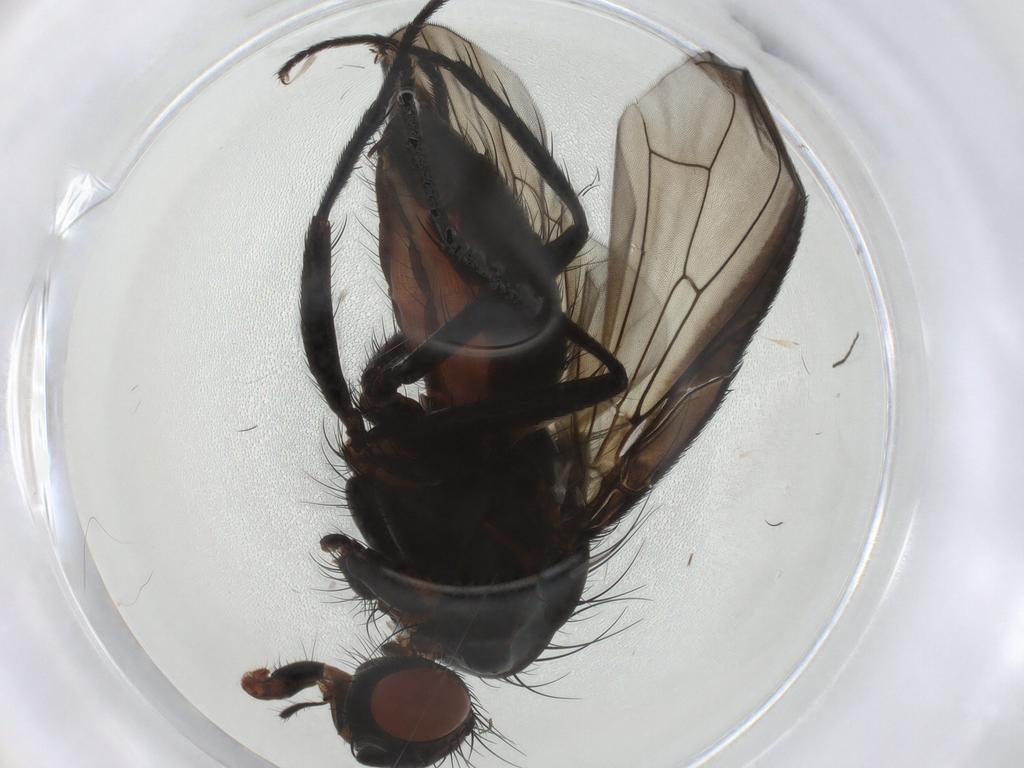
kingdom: Animalia
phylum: Arthropoda
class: Insecta
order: Diptera
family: Anthomyiidae
